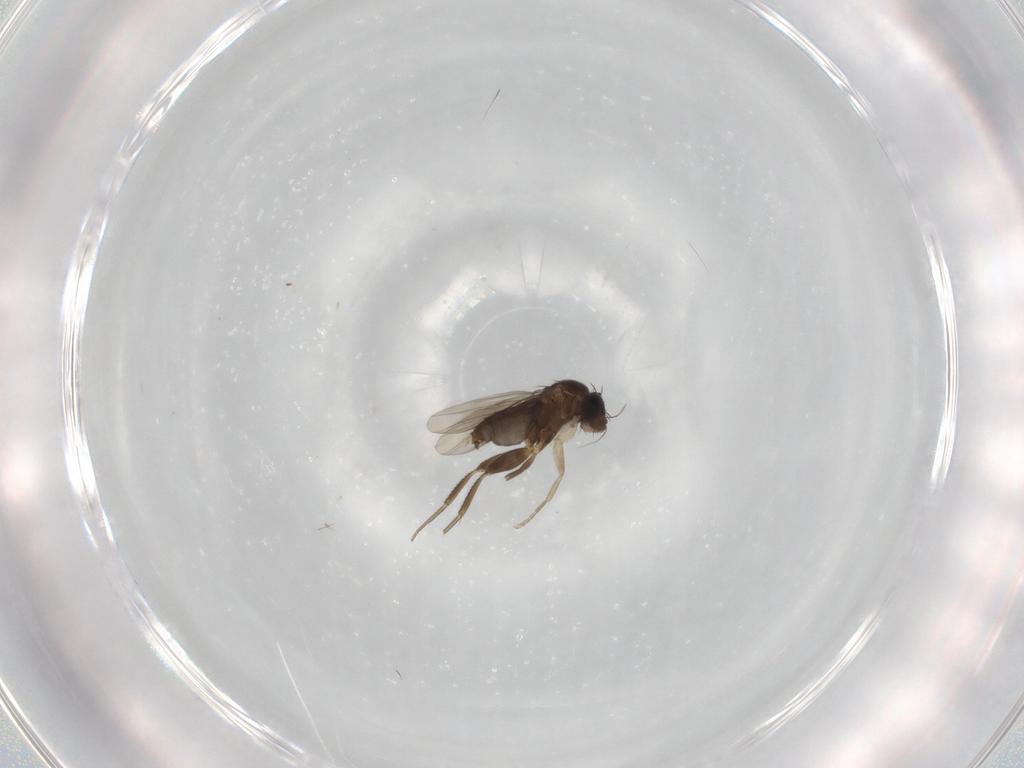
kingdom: Animalia
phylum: Arthropoda
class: Insecta
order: Diptera
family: Phoridae
